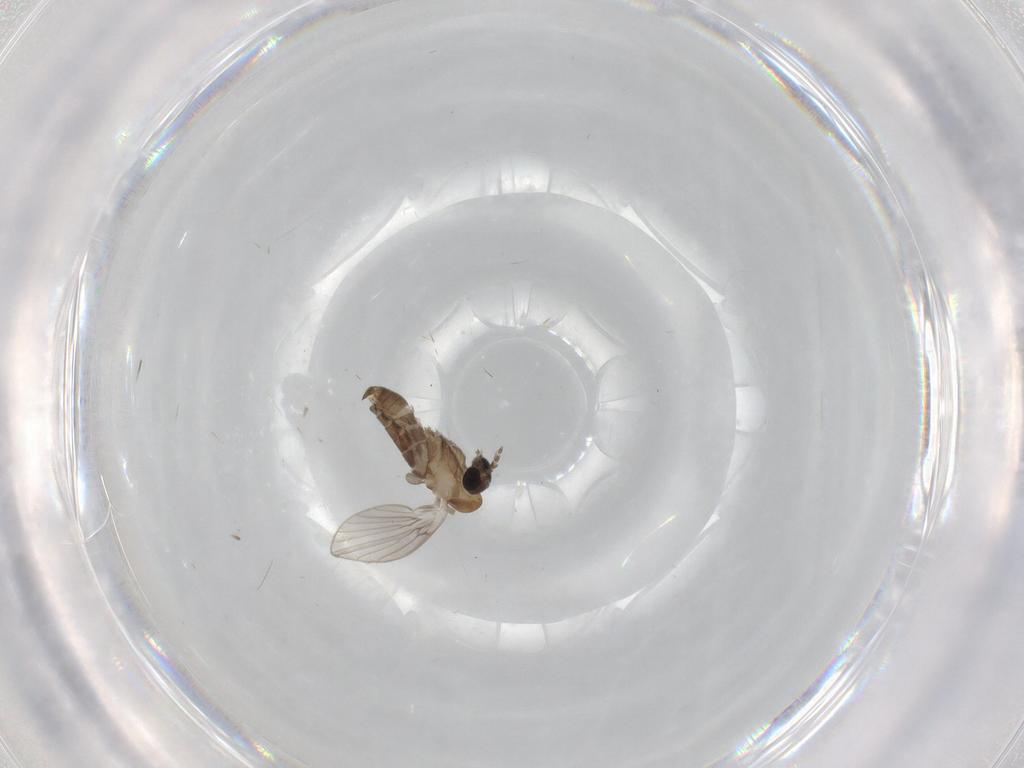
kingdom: Animalia
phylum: Arthropoda
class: Insecta
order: Diptera
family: Psychodidae
